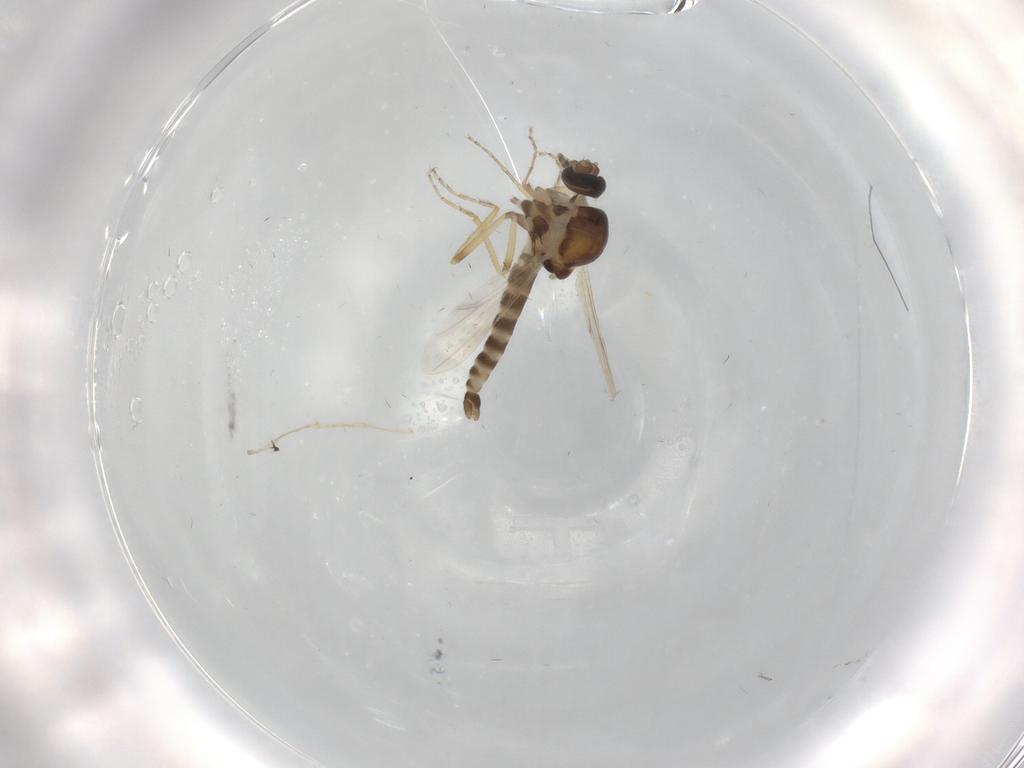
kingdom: Animalia
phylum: Arthropoda
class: Insecta
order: Diptera
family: Ceratopogonidae
